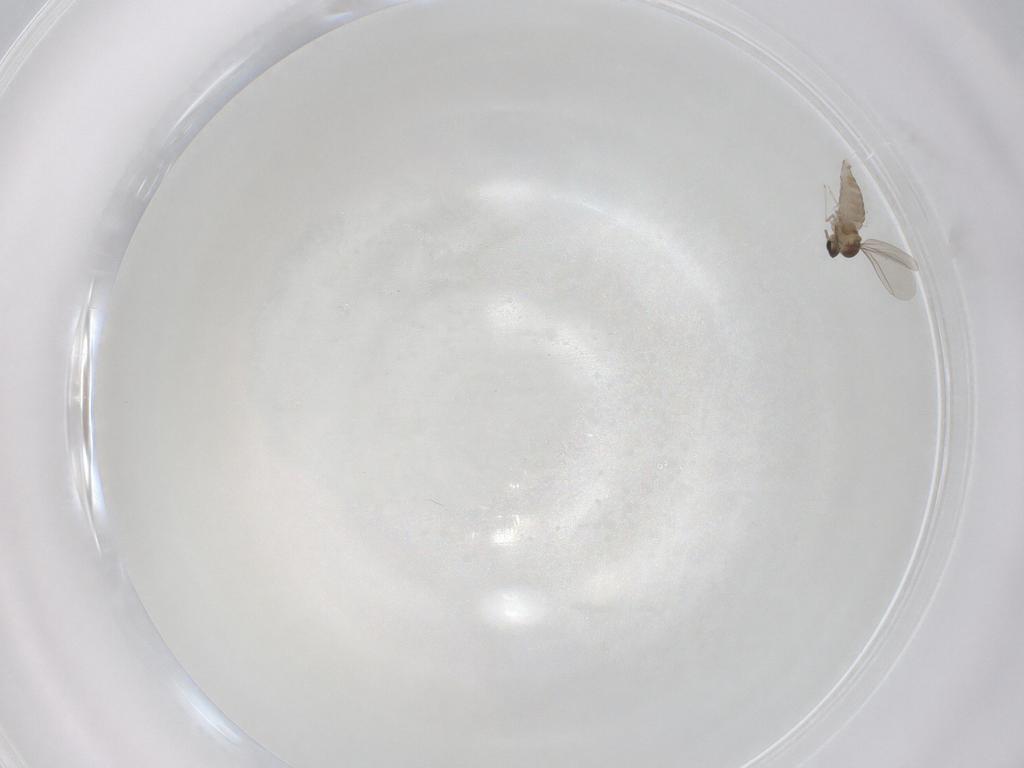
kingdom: Animalia
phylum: Arthropoda
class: Insecta
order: Diptera
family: Cecidomyiidae
